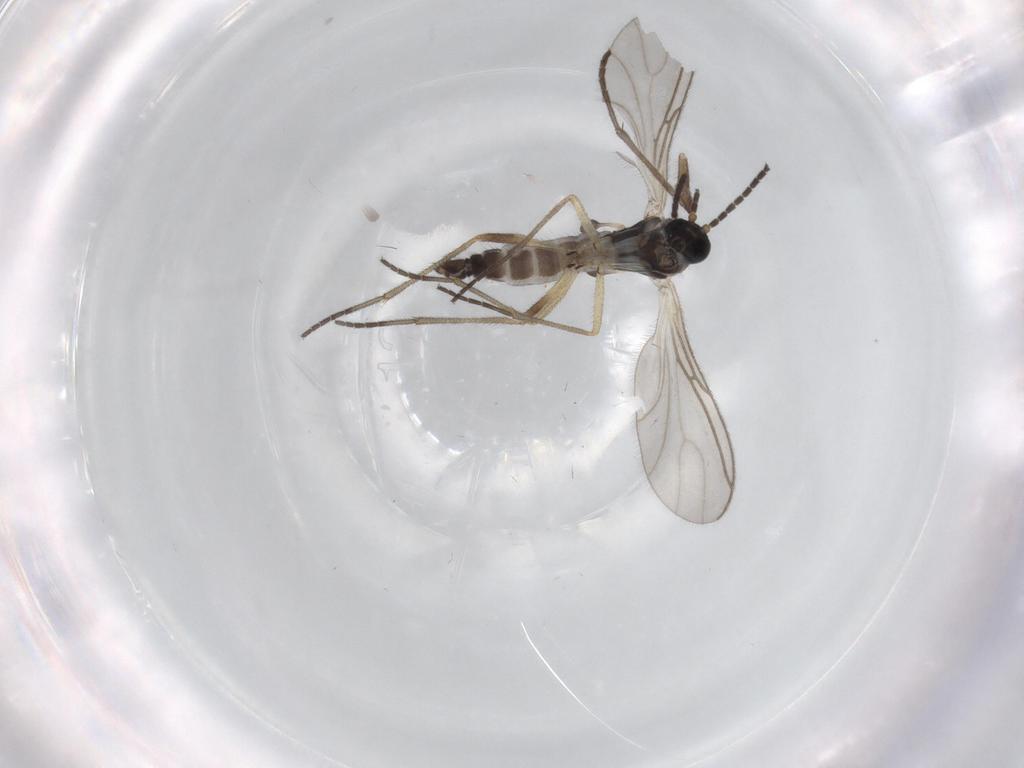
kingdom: Animalia
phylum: Arthropoda
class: Insecta
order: Diptera
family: Sciaridae
